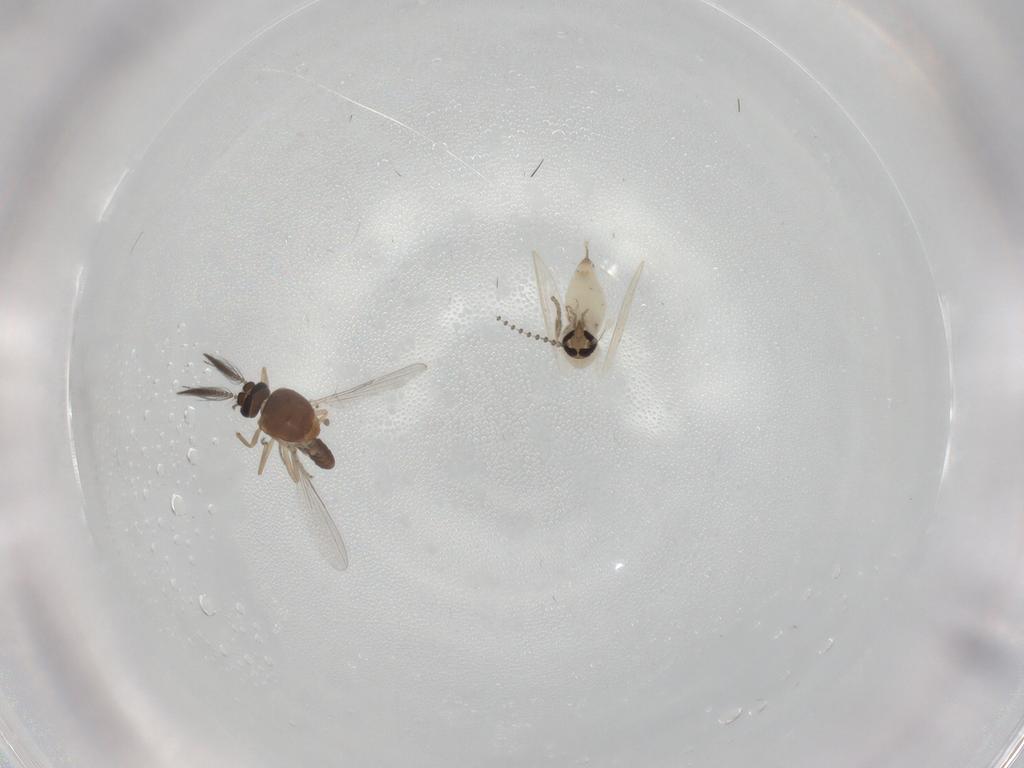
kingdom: Animalia
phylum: Arthropoda
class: Insecta
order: Diptera
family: Ceratopogonidae
